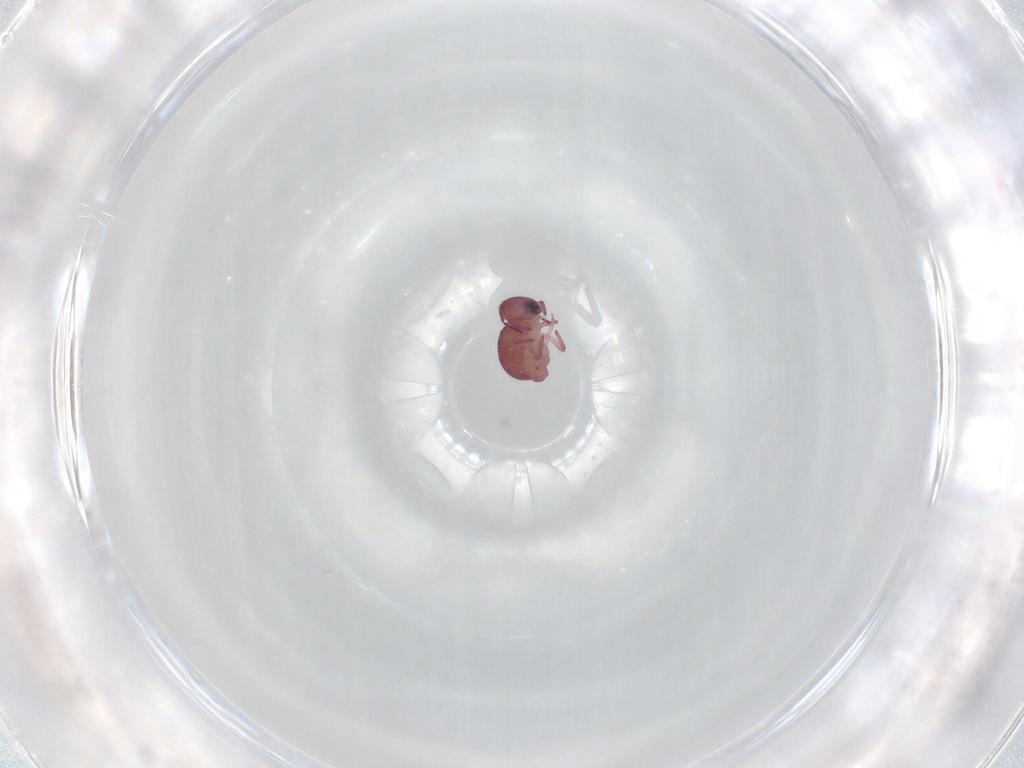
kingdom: Animalia
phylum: Arthropoda
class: Collembola
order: Symphypleona
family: Sminthurididae
